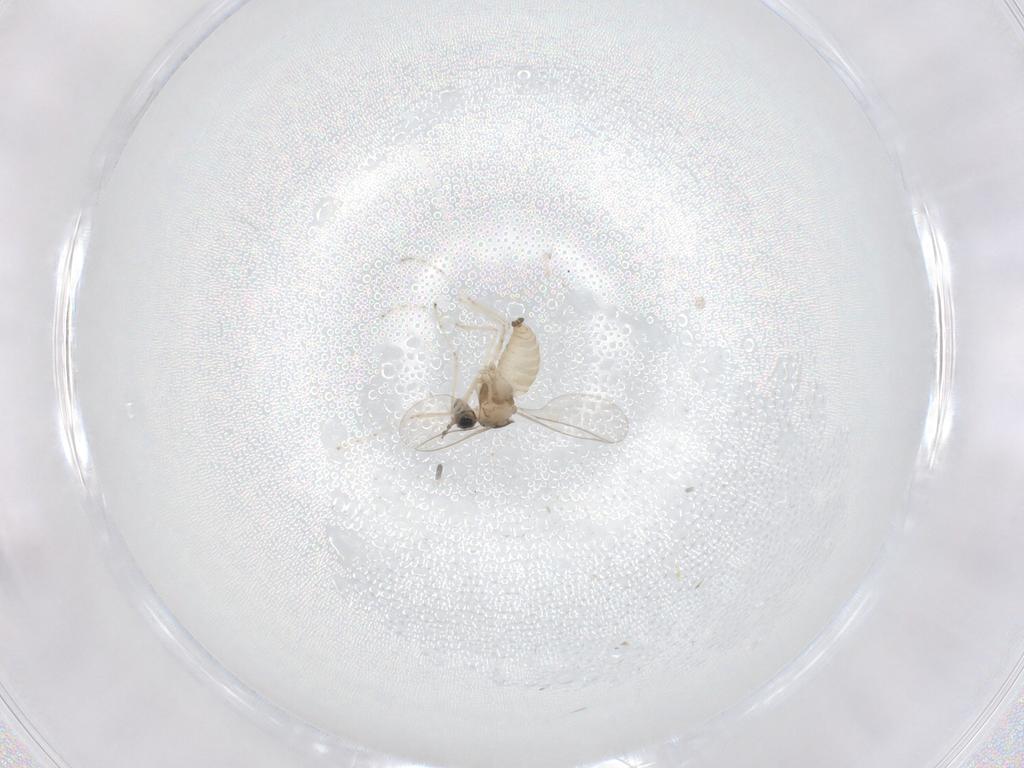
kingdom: Animalia
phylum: Arthropoda
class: Insecta
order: Diptera
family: Cecidomyiidae
